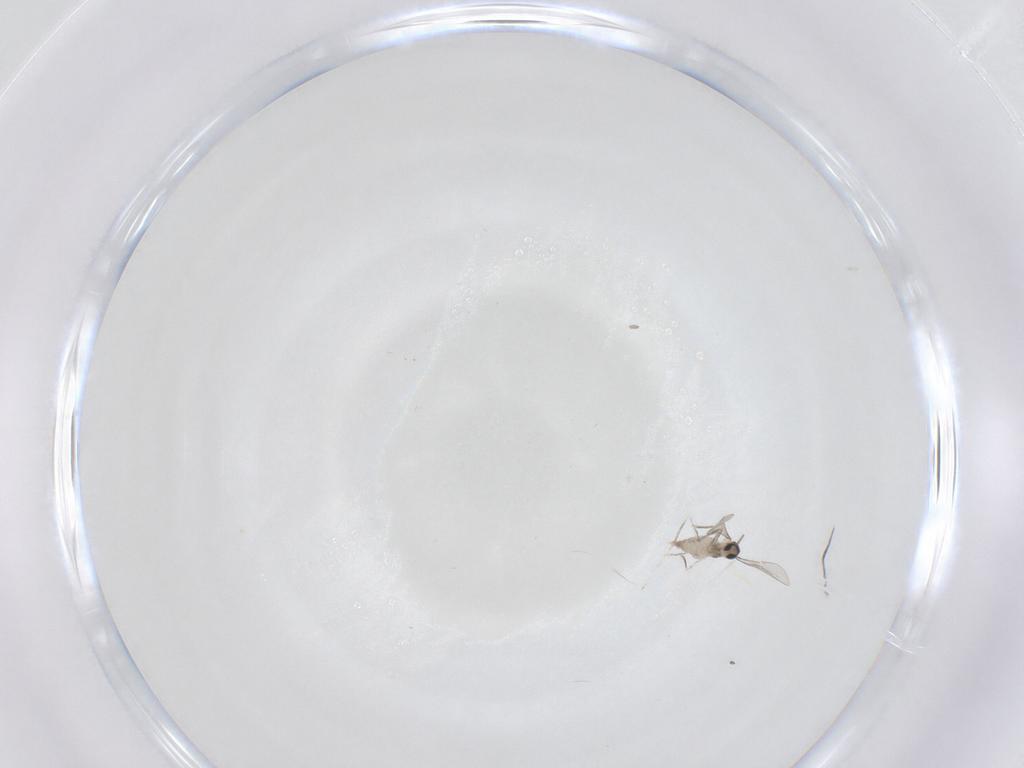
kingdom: Animalia
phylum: Arthropoda
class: Insecta
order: Diptera
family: Cecidomyiidae
